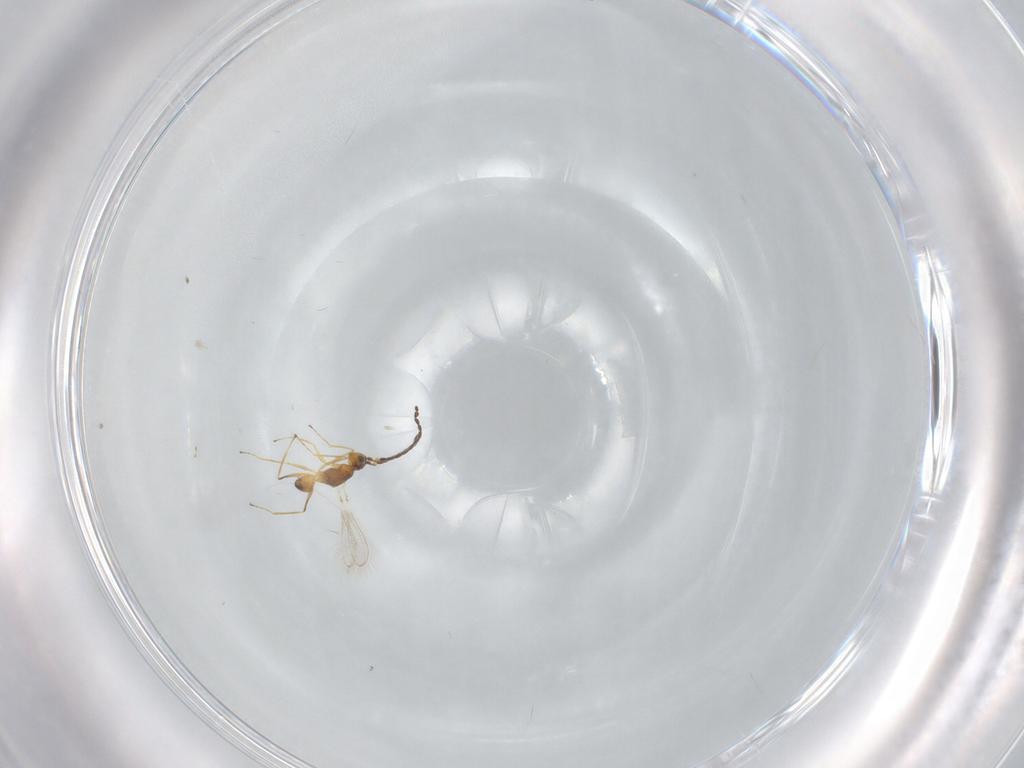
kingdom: Animalia
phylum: Arthropoda
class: Insecta
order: Hymenoptera
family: Mymaridae
